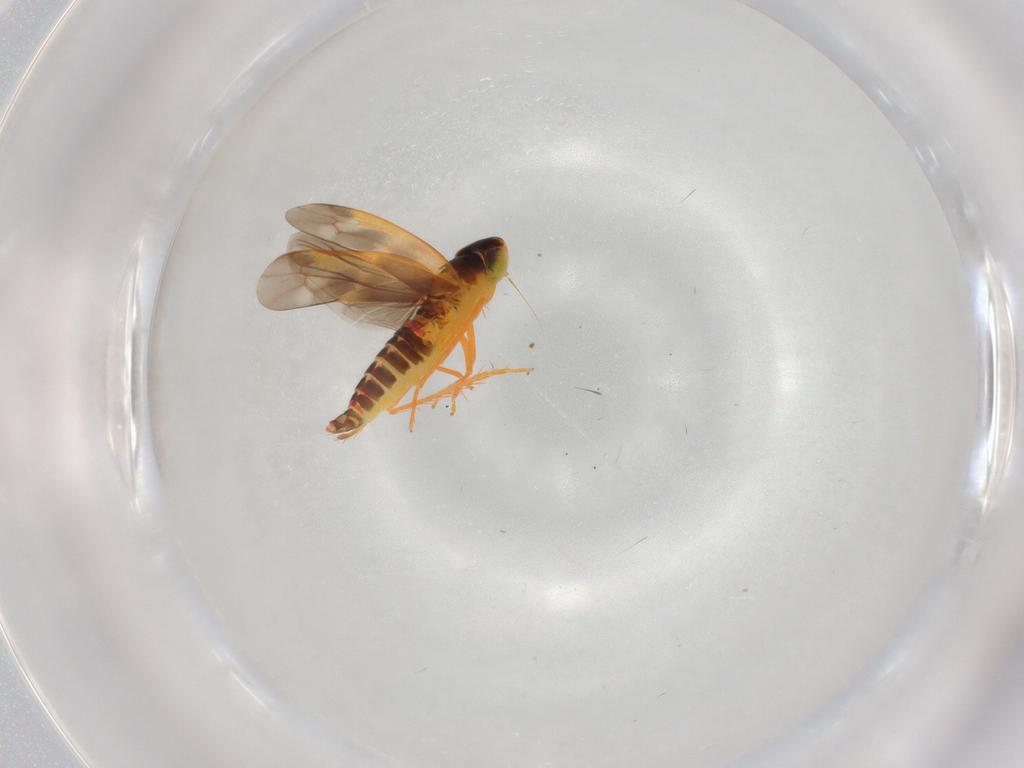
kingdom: Animalia
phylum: Arthropoda
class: Insecta
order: Hemiptera
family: Cicadellidae
